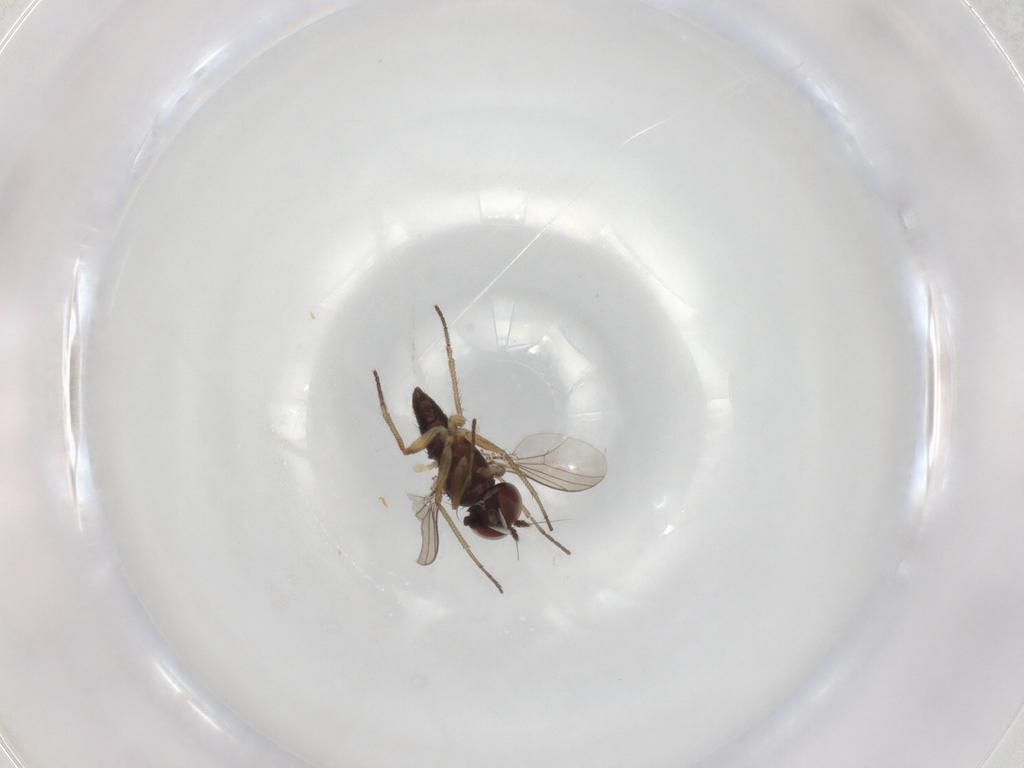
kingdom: Animalia
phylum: Arthropoda
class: Insecta
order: Diptera
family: Dolichopodidae
